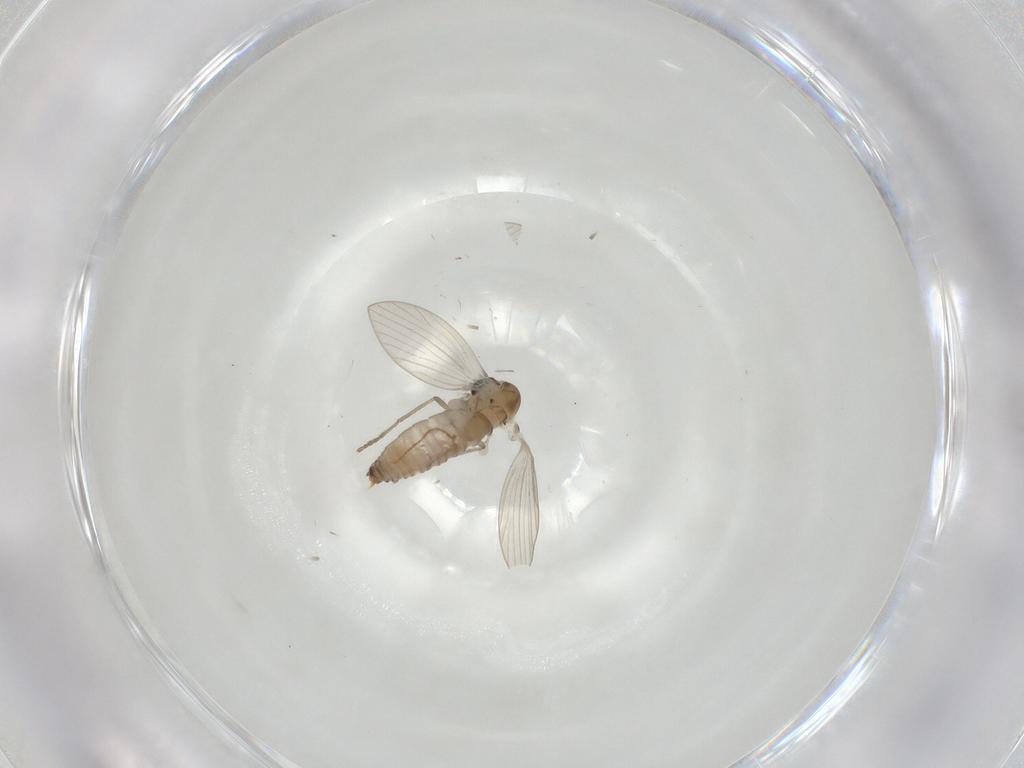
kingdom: Animalia
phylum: Arthropoda
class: Insecta
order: Diptera
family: Psychodidae
